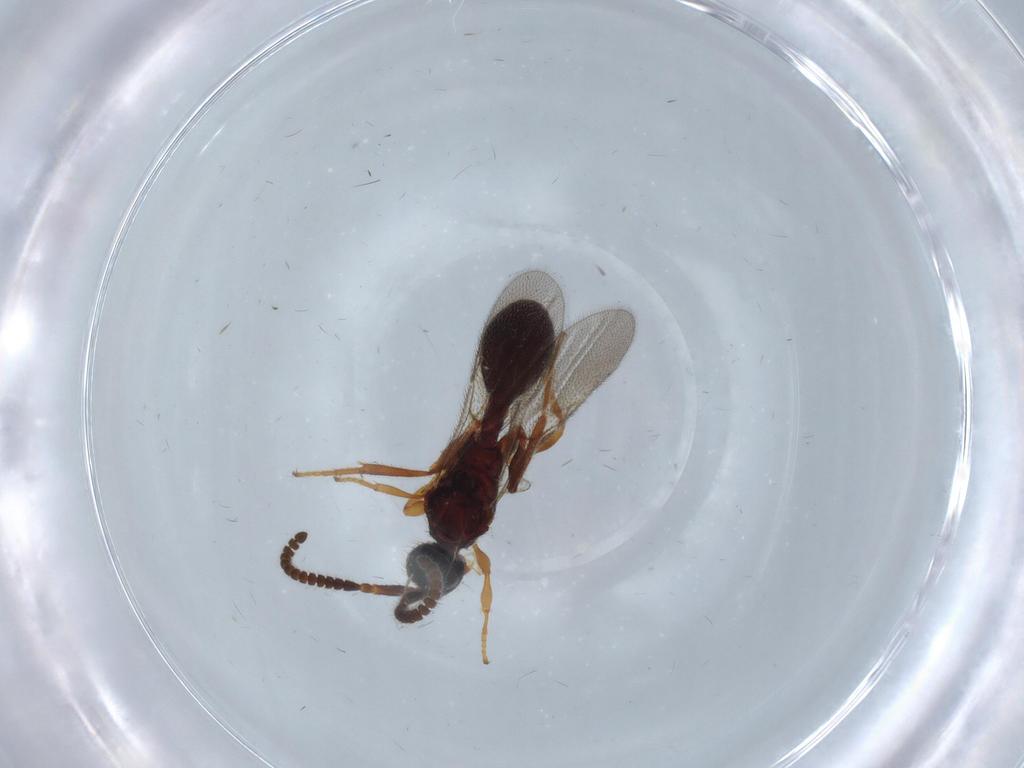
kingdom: Animalia
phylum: Arthropoda
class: Insecta
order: Hymenoptera
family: Diapriidae
